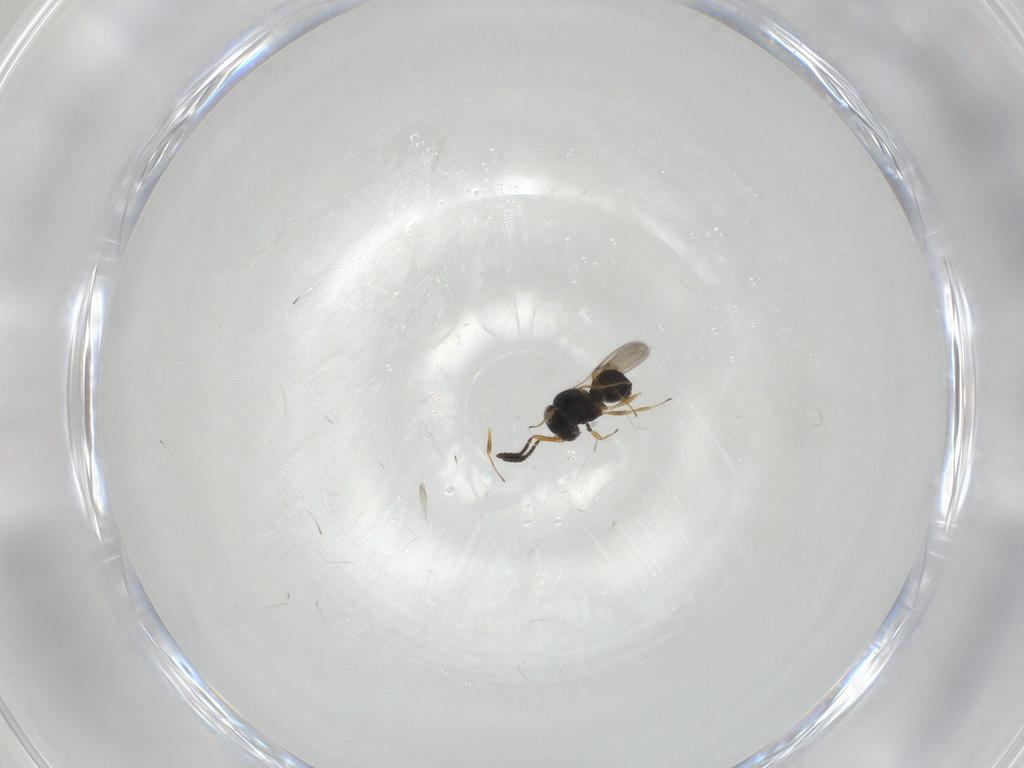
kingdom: Animalia
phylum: Arthropoda
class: Insecta
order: Hymenoptera
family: Scelionidae
